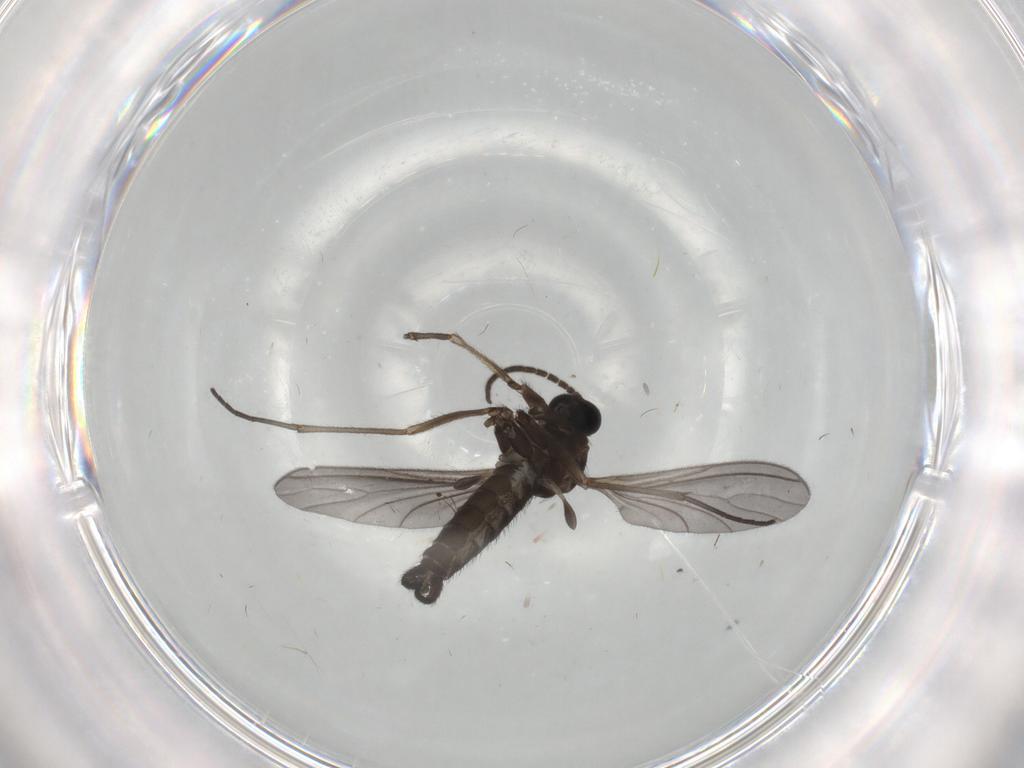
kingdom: Animalia
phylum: Arthropoda
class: Insecta
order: Diptera
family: Sciaridae
